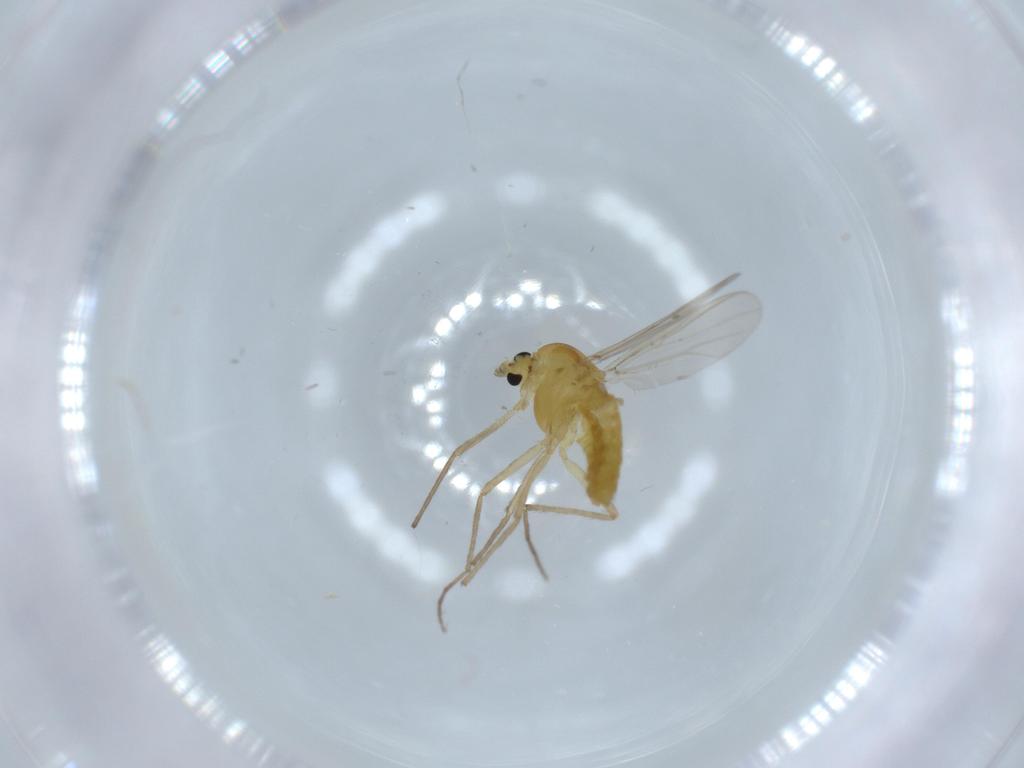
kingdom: Animalia
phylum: Arthropoda
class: Insecta
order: Diptera
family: Chironomidae
